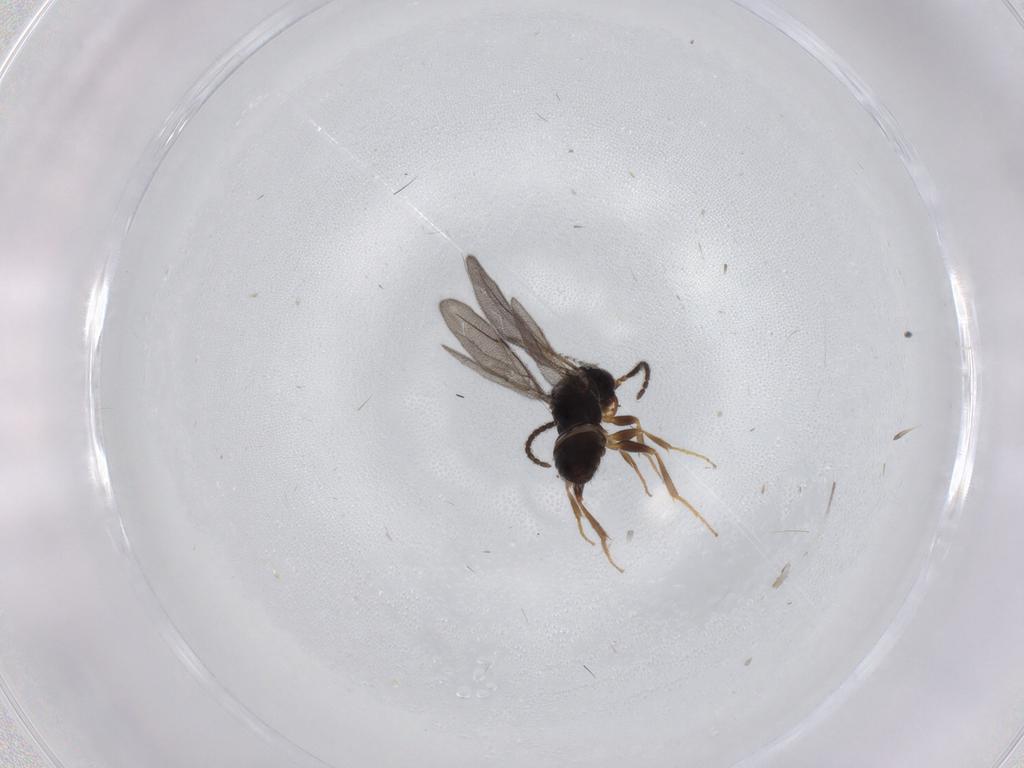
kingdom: Animalia
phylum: Arthropoda
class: Insecta
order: Hymenoptera
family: Bethylidae
